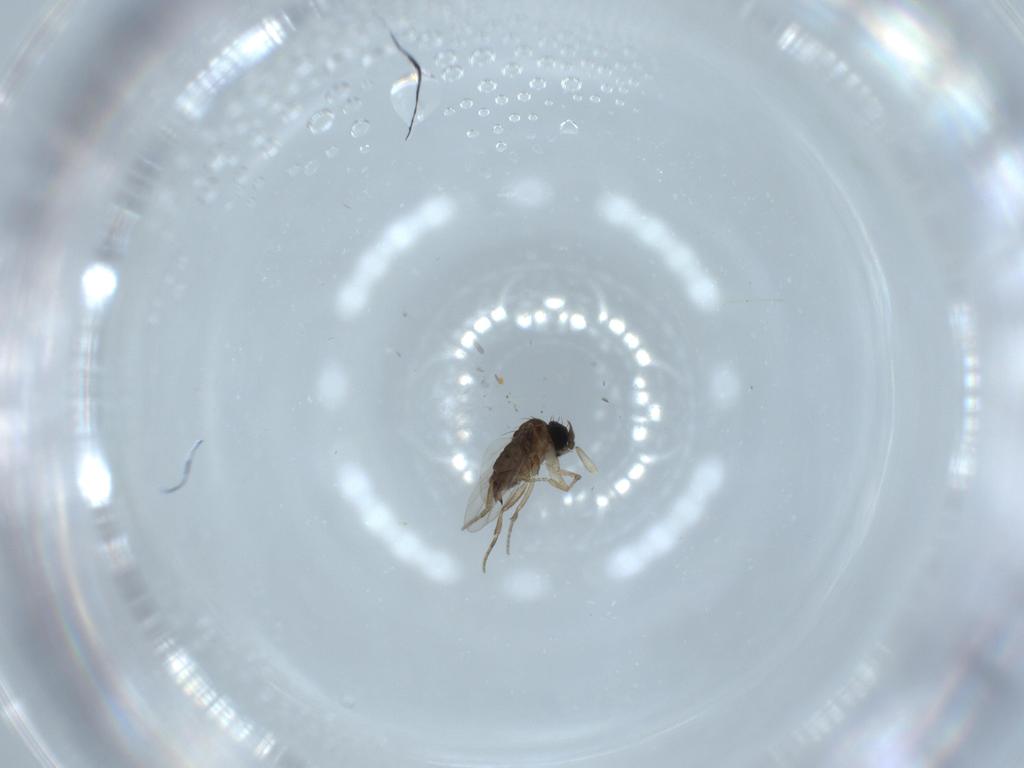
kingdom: Animalia
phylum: Arthropoda
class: Insecta
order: Diptera
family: Phoridae
